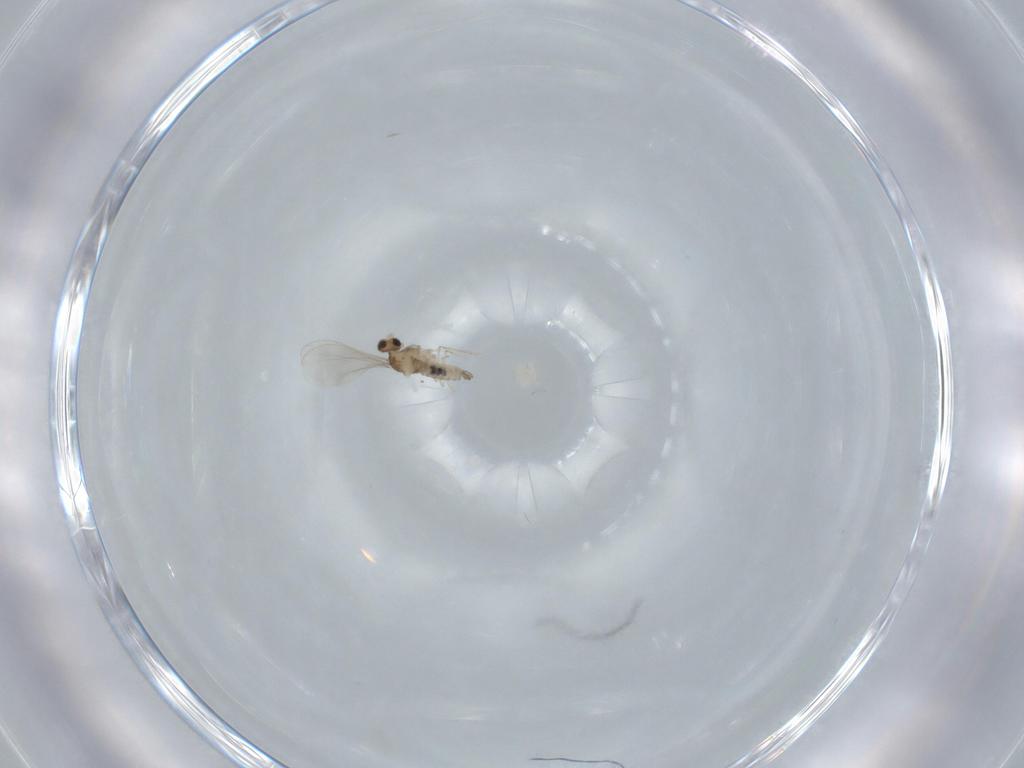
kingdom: Animalia
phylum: Arthropoda
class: Insecta
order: Diptera
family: Cecidomyiidae
